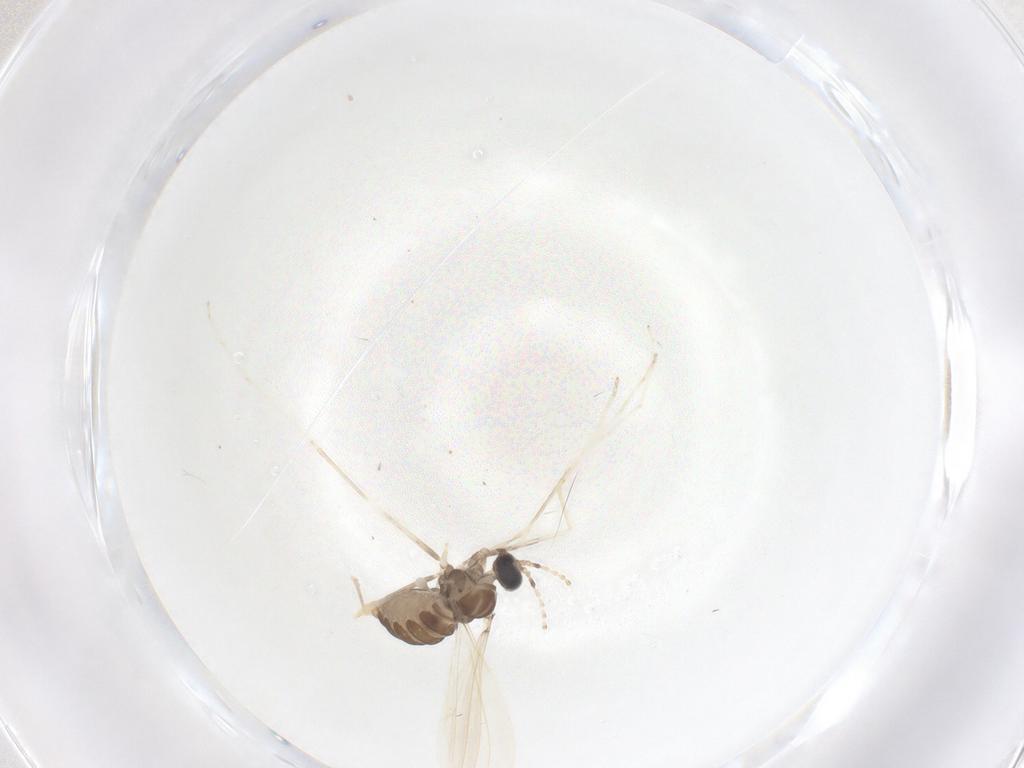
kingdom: Animalia
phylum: Arthropoda
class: Insecta
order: Diptera
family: Cecidomyiidae
